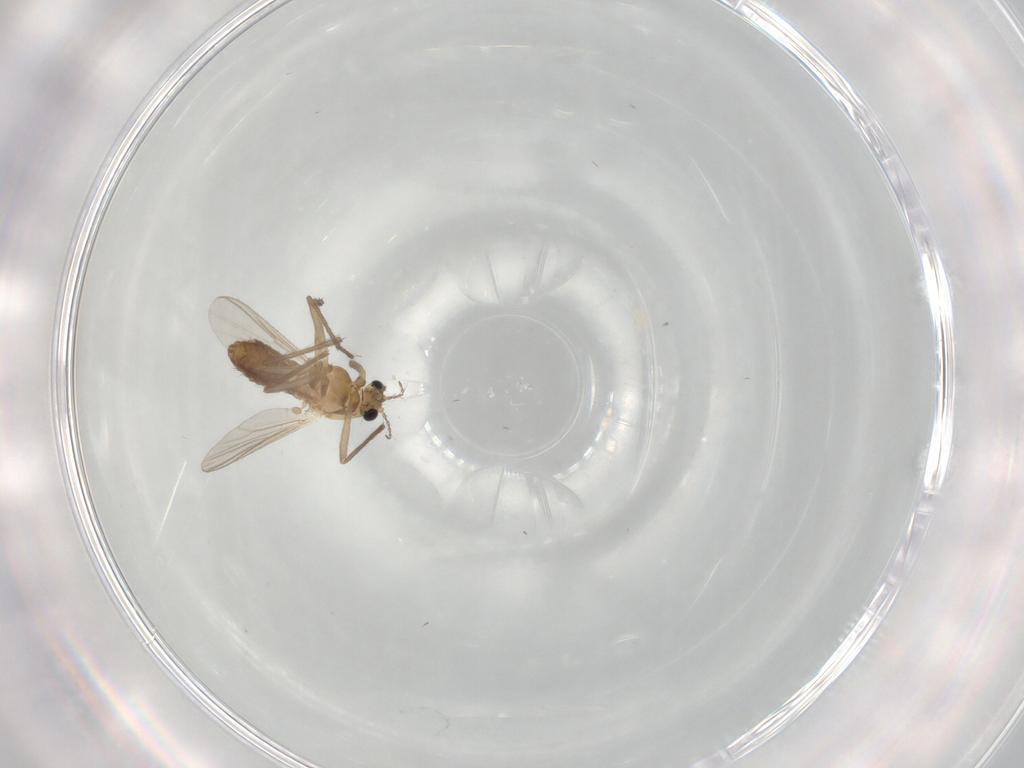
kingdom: Animalia
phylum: Arthropoda
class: Insecta
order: Diptera
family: Chironomidae
